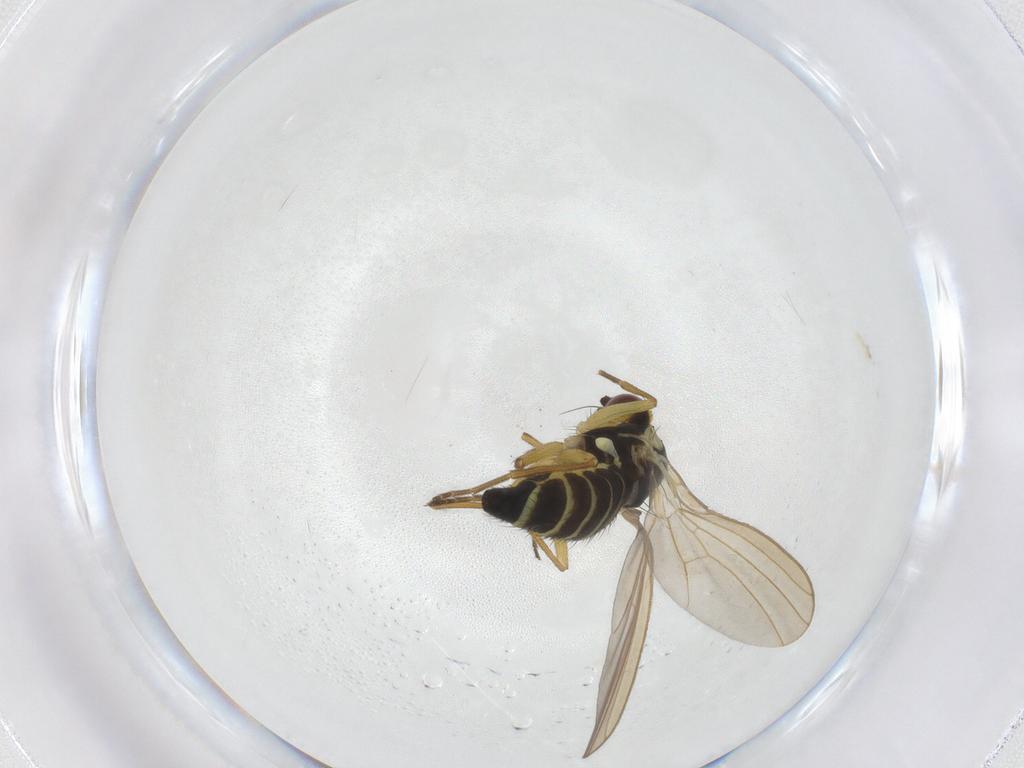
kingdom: Animalia
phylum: Arthropoda
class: Insecta
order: Diptera
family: Agromyzidae
